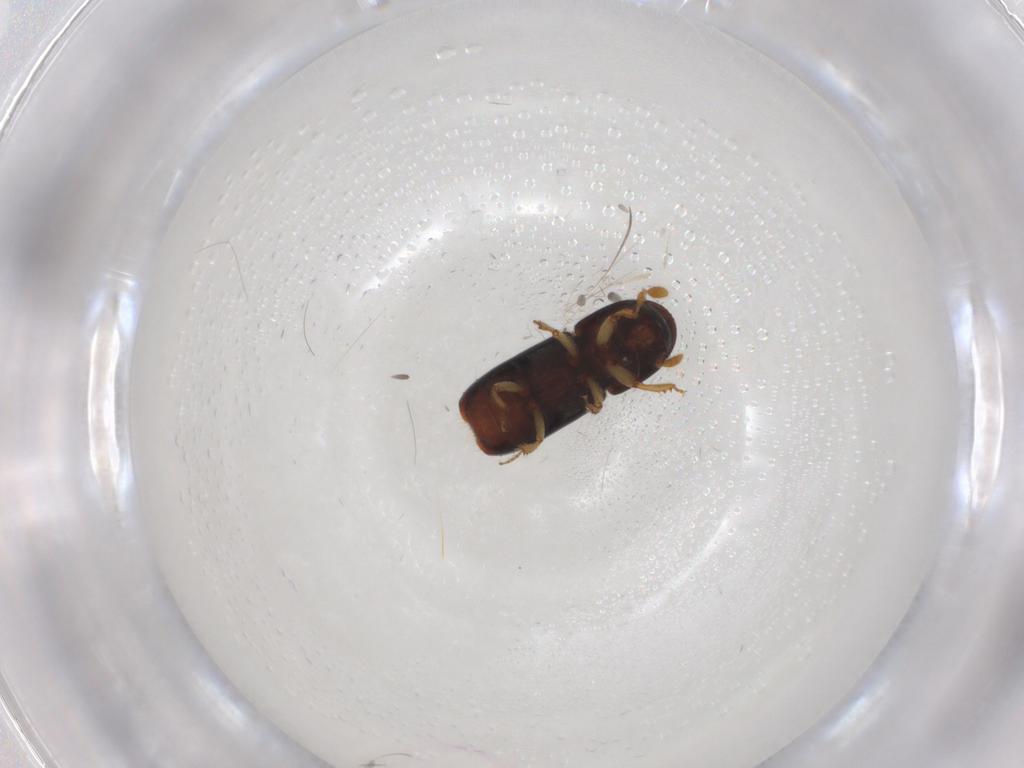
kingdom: Animalia
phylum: Arthropoda
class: Insecta
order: Coleoptera
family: Curculionidae
